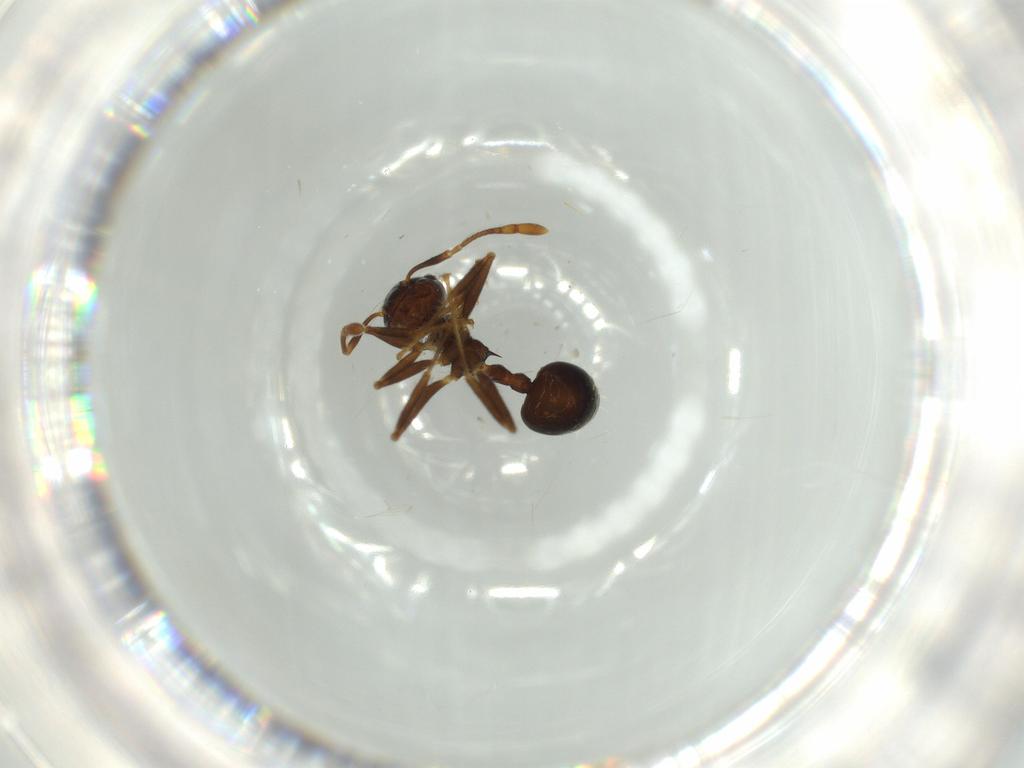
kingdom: Animalia
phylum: Arthropoda
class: Insecta
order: Hymenoptera
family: Formicidae
